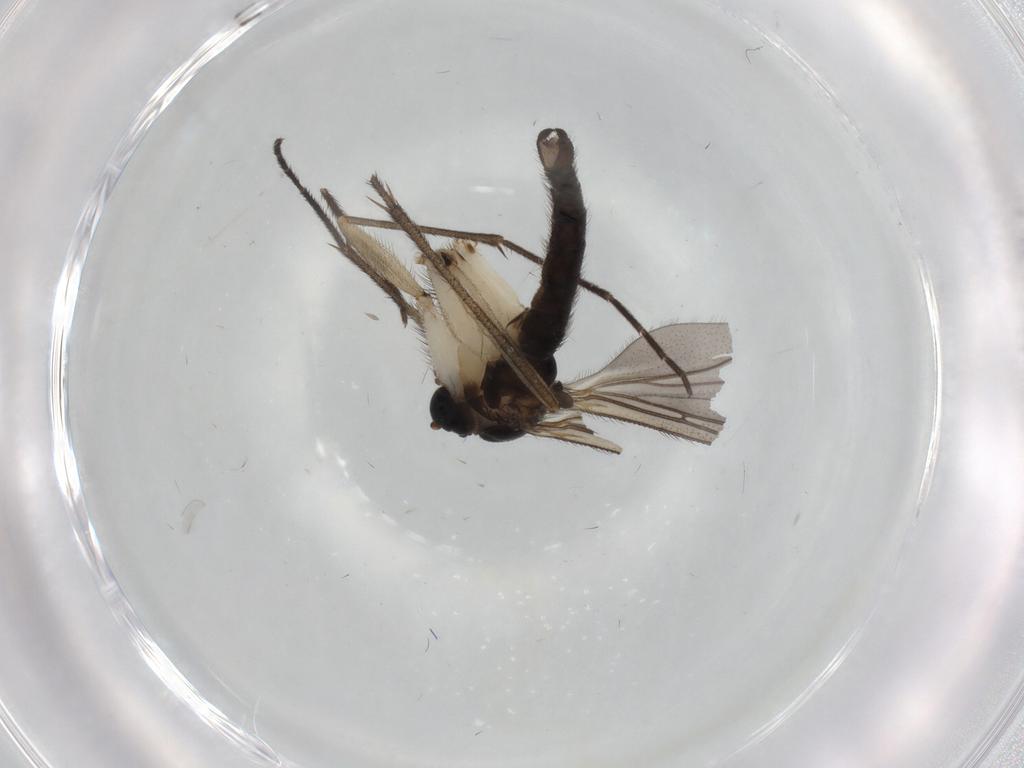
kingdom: Animalia
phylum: Arthropoda
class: Insecta
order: Diptera
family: Sciaridae
